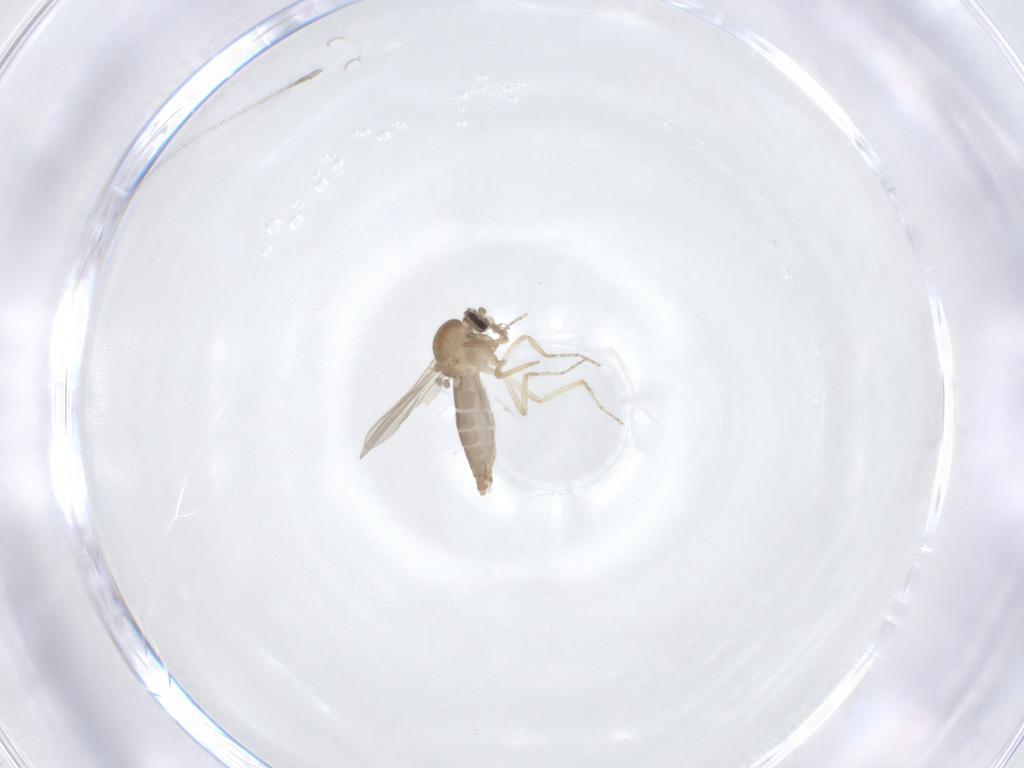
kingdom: Animalia
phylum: Arthropoda
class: Insecta
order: Diptera
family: Ceratopogonidae
